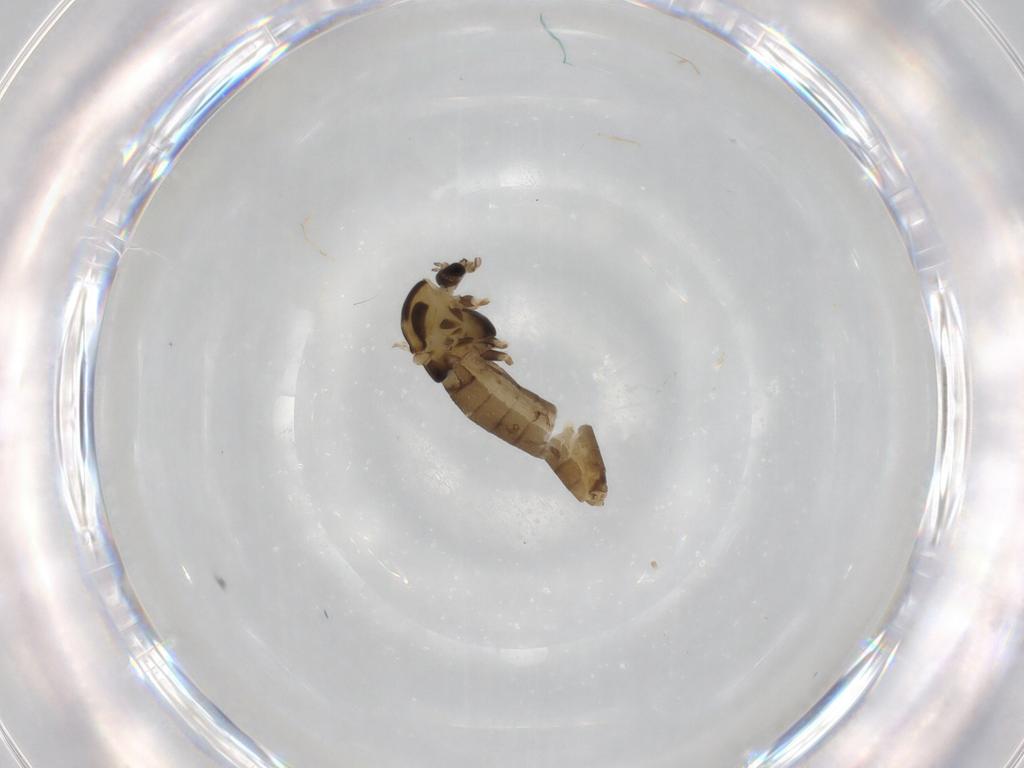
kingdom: Animalia
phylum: Arthropoda
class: Insecta
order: Diptera
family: Chironomidae
